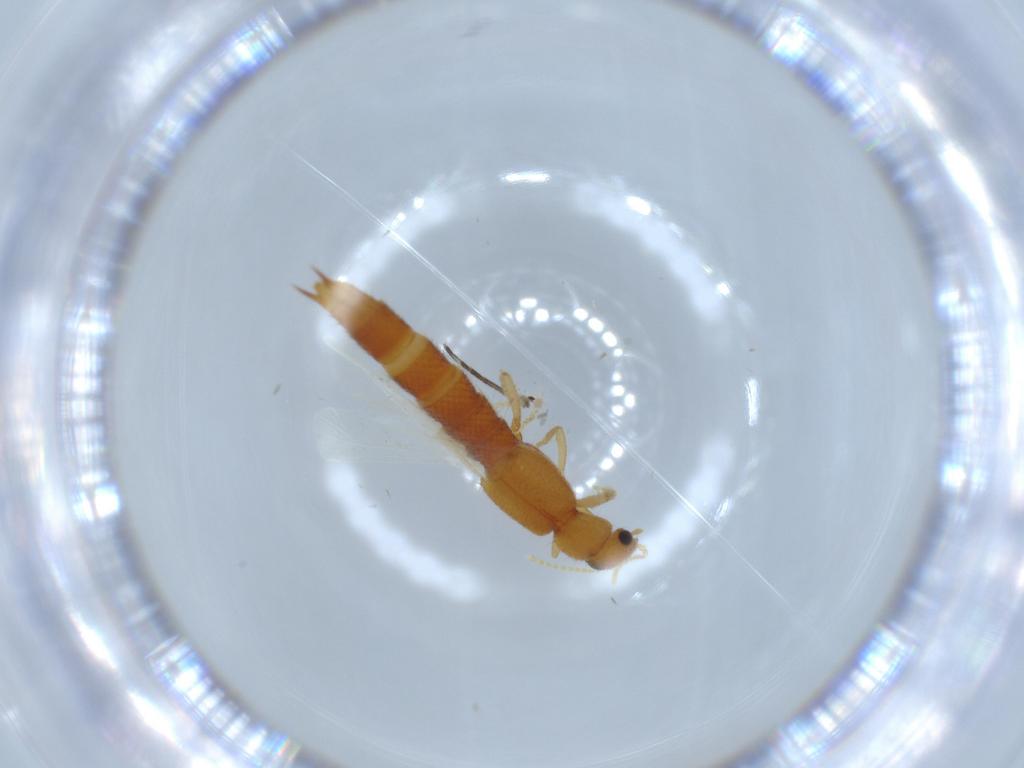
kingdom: Animalia
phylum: Arthropoda
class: Insecta
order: Coleoptera
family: Staphylinidae
